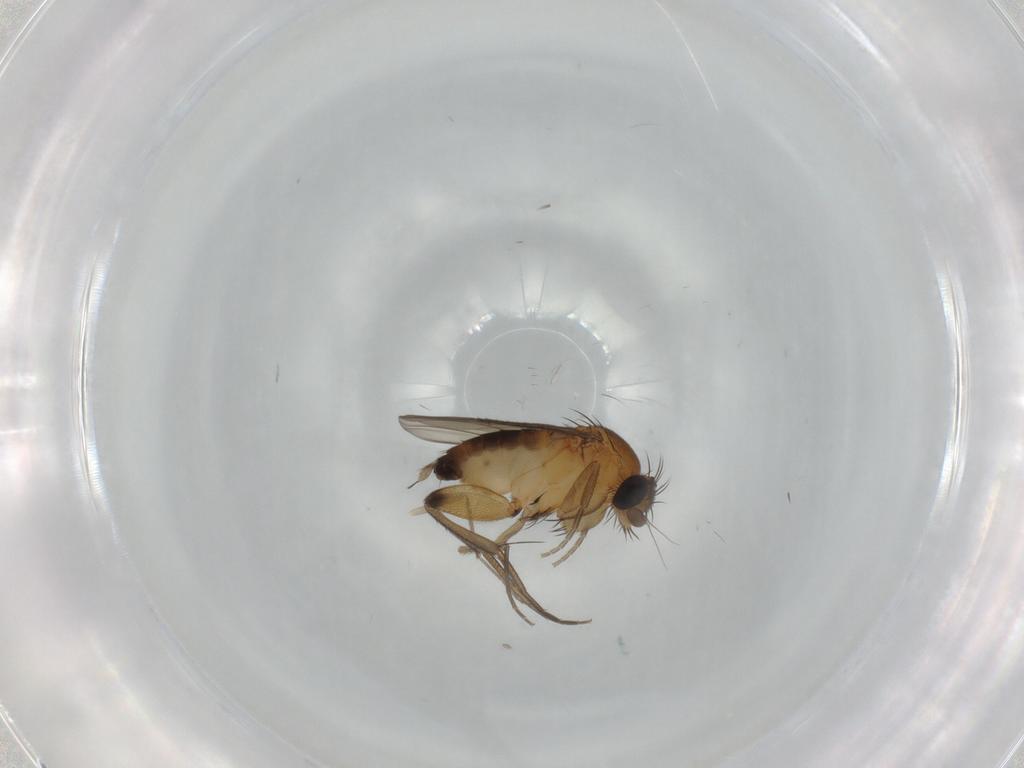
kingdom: Animalia
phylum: Arthropoda
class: Insecta
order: Diptera
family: Phoridae
